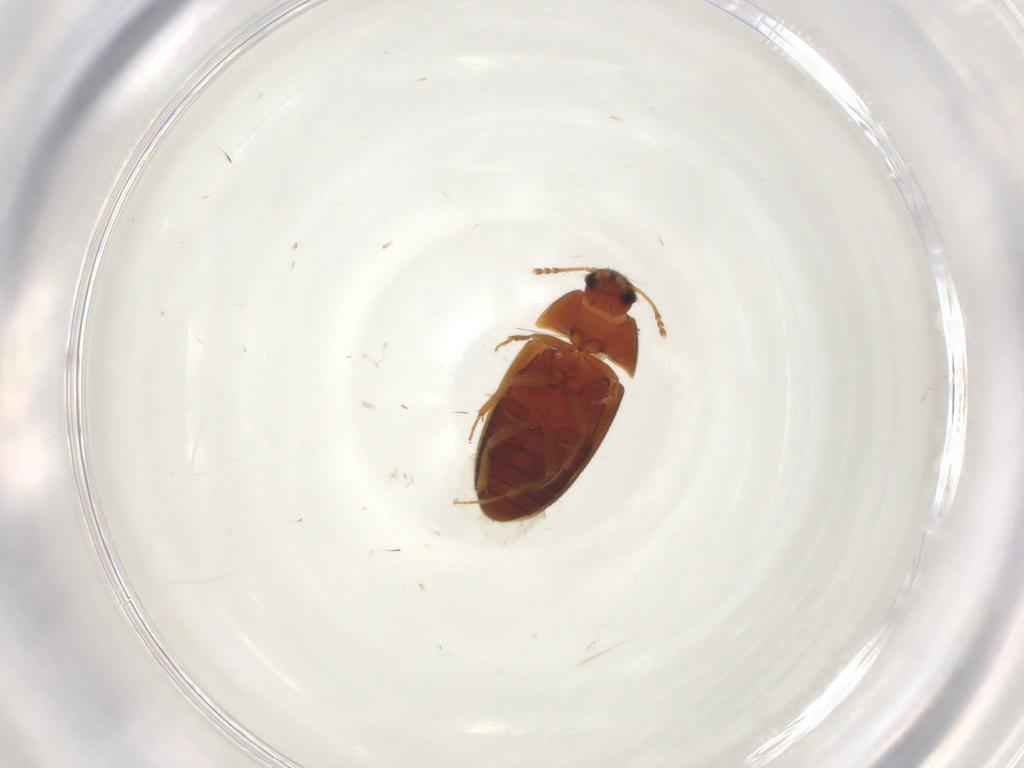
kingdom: Animalia
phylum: Arthropoda
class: Insecta
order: Coleoptera
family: Mycetophagidae
